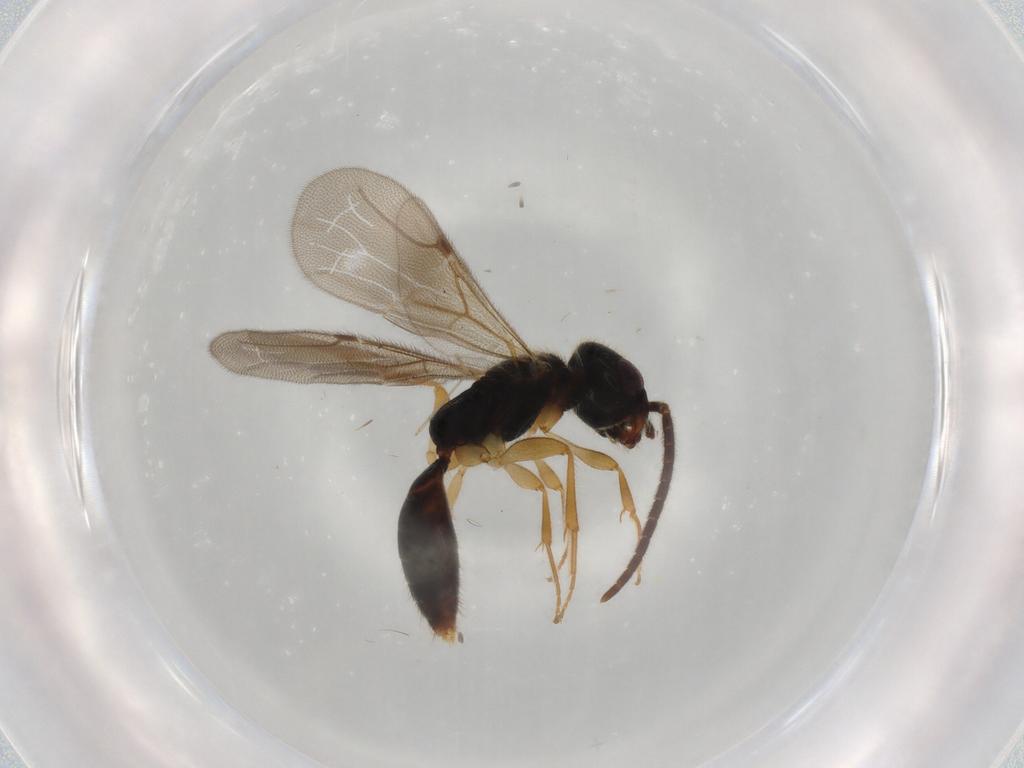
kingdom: Animalia
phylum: Arthropoda
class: Insecta
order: Hymenoptera
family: Bethylidae
